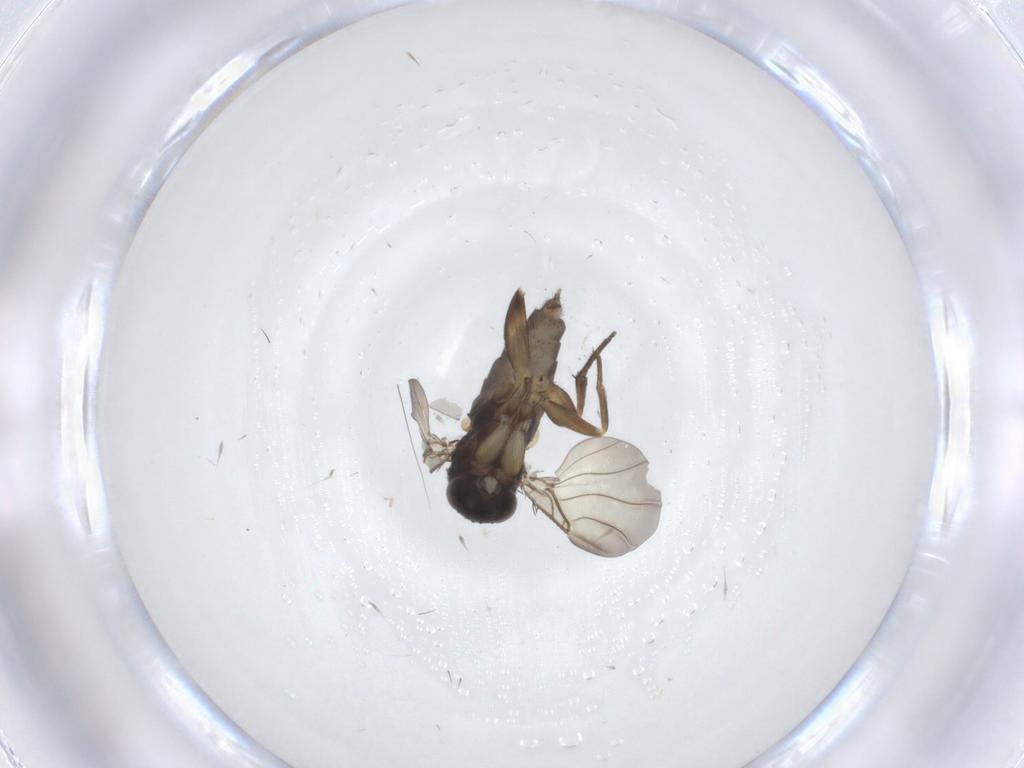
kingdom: Animalia
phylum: Arthropoda
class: Insecta
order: Diptera
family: Phoridae
